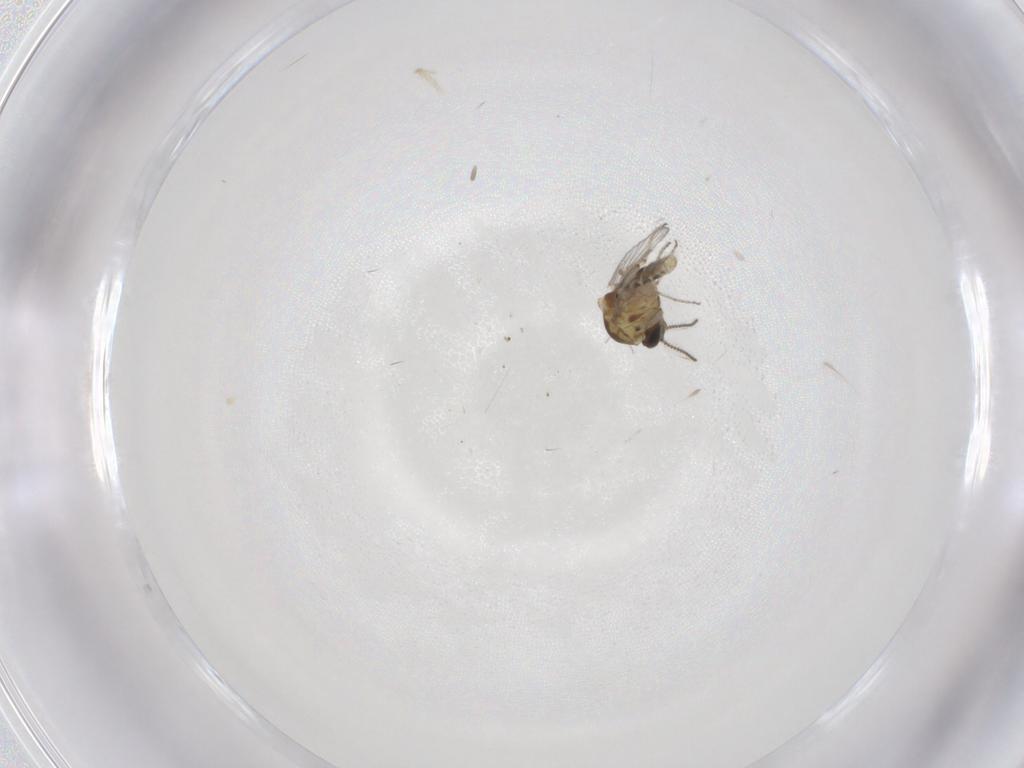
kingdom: Animalia
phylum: Arthropoda
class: Insecta
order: Diptera
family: Ceratopogonidae
